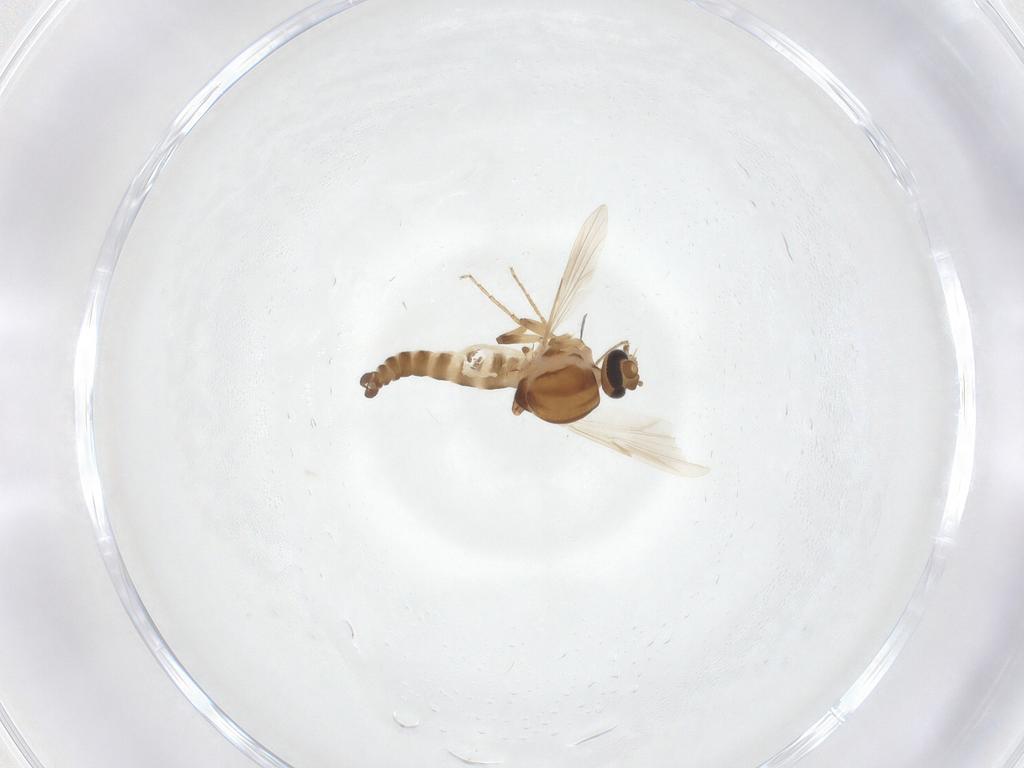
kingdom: Animalia
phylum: Arthropoda
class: Insecta
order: Diptera
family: Ceratopogonidae
